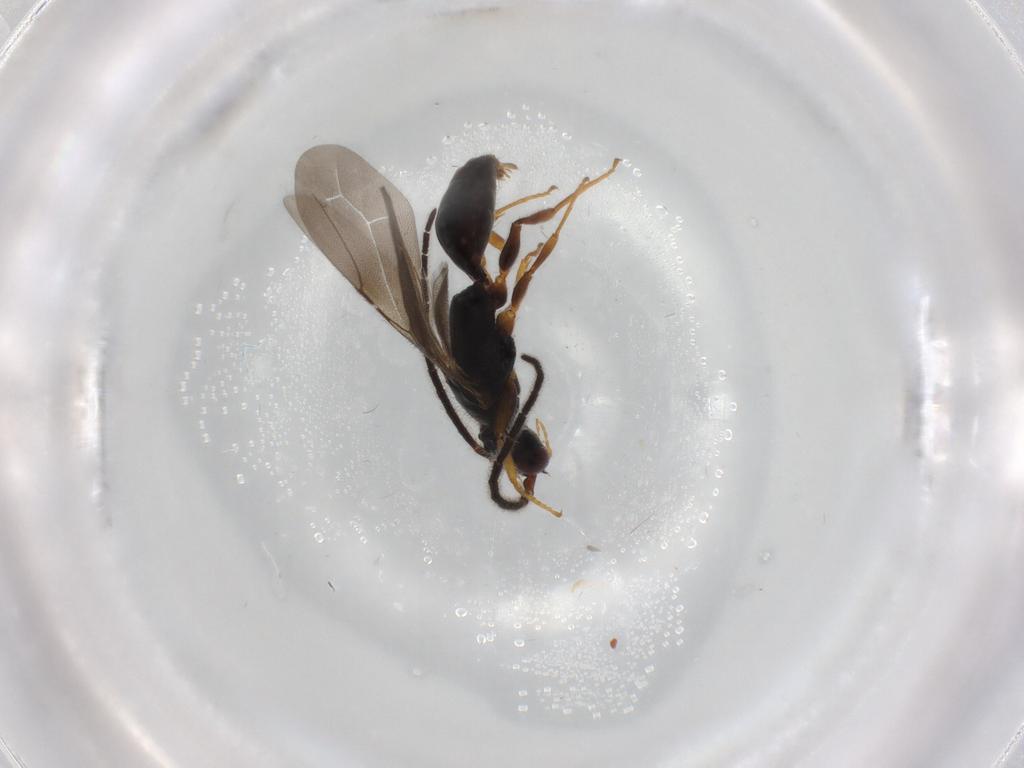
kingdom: Animalia
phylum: Arthropoda
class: Insecta
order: Hymenoptera
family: Bethylidae
